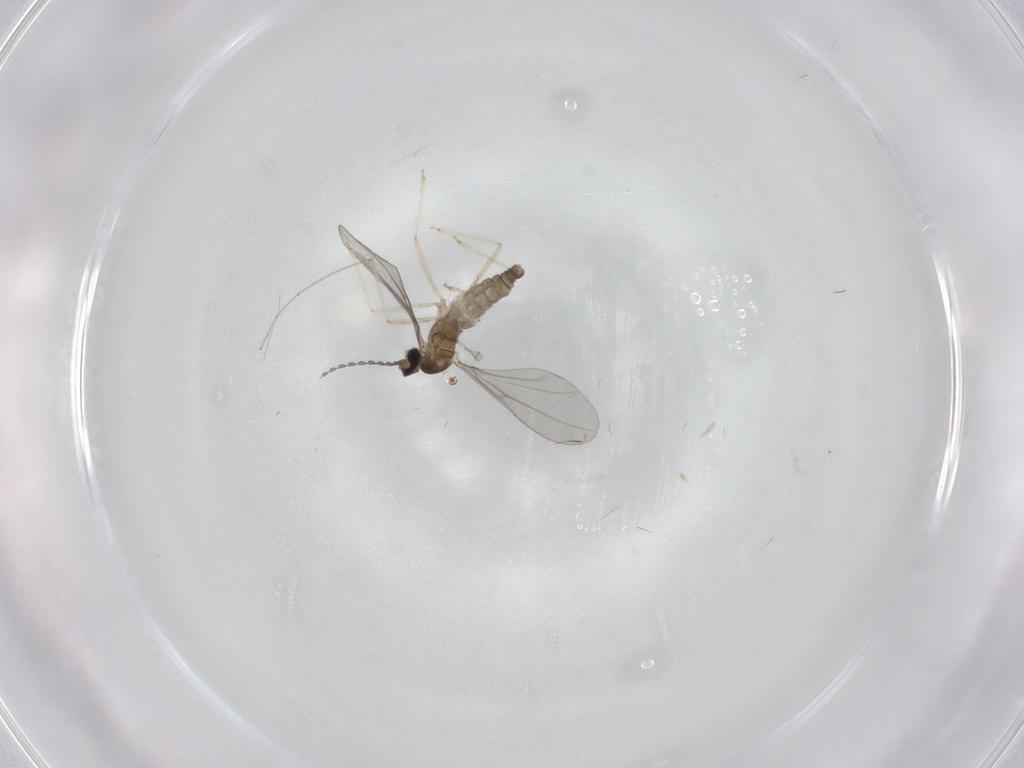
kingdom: Animalia
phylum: Arthropoda
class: Insecta
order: Diptera
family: Cecidomyiidae
